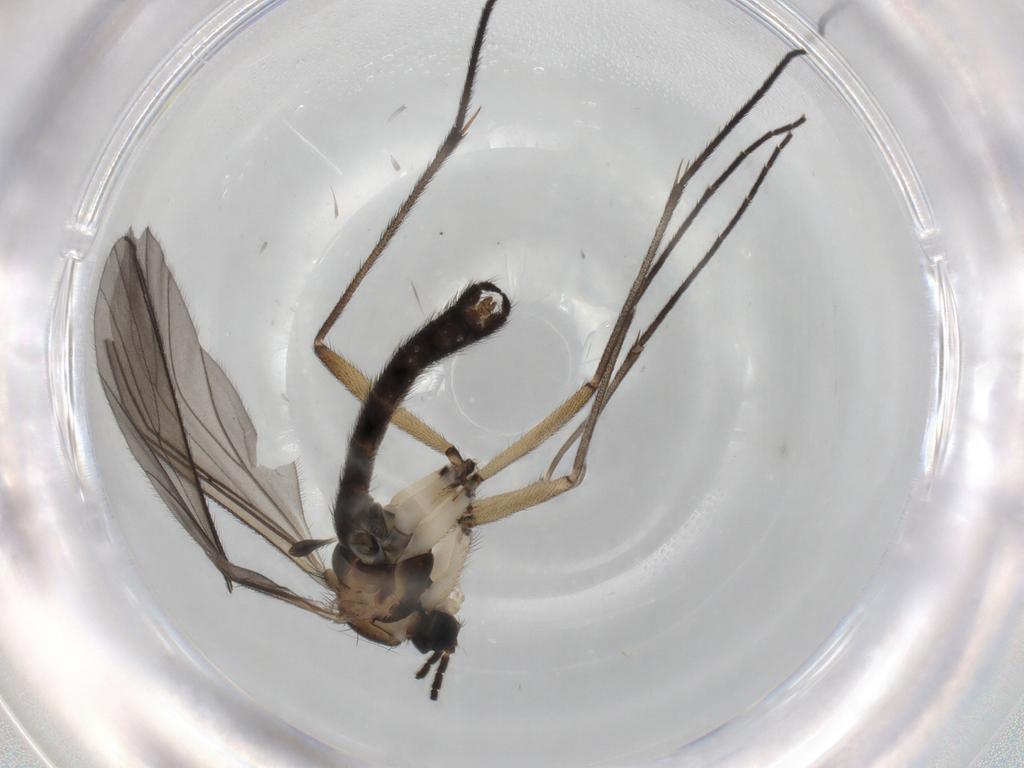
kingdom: Animalia
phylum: Arthropoda
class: Insecta
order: Diptera
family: Sciaridae
